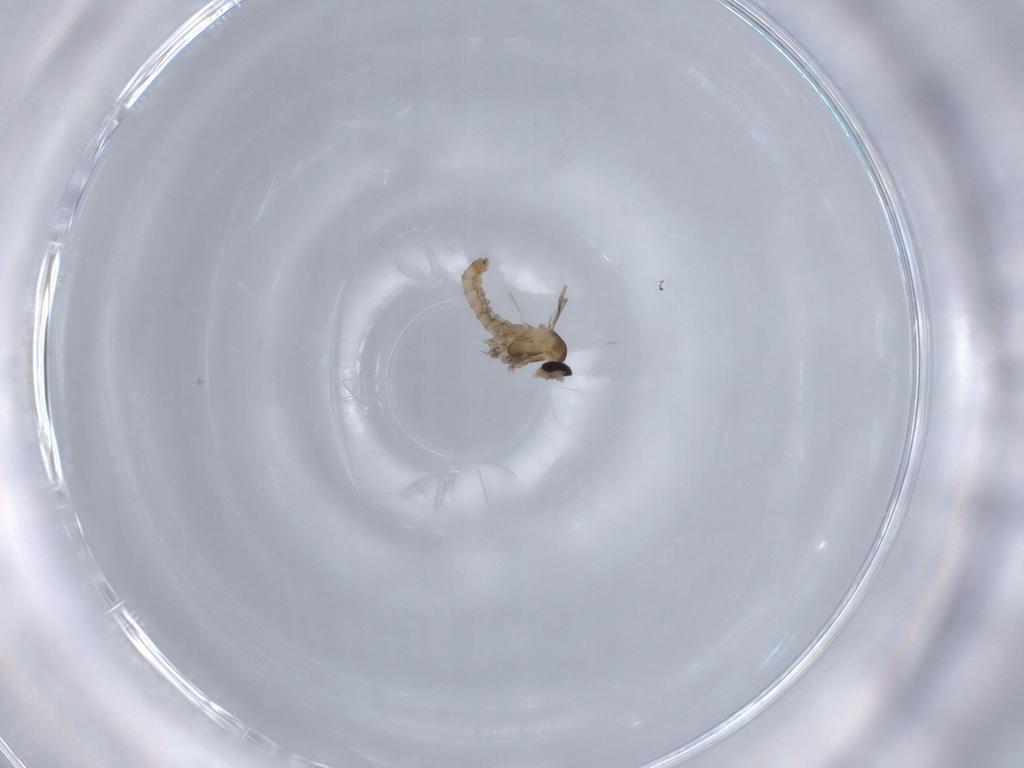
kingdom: Animalia
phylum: Arthropoda
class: Insecta
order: Diptera
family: Cecidomyiidae
